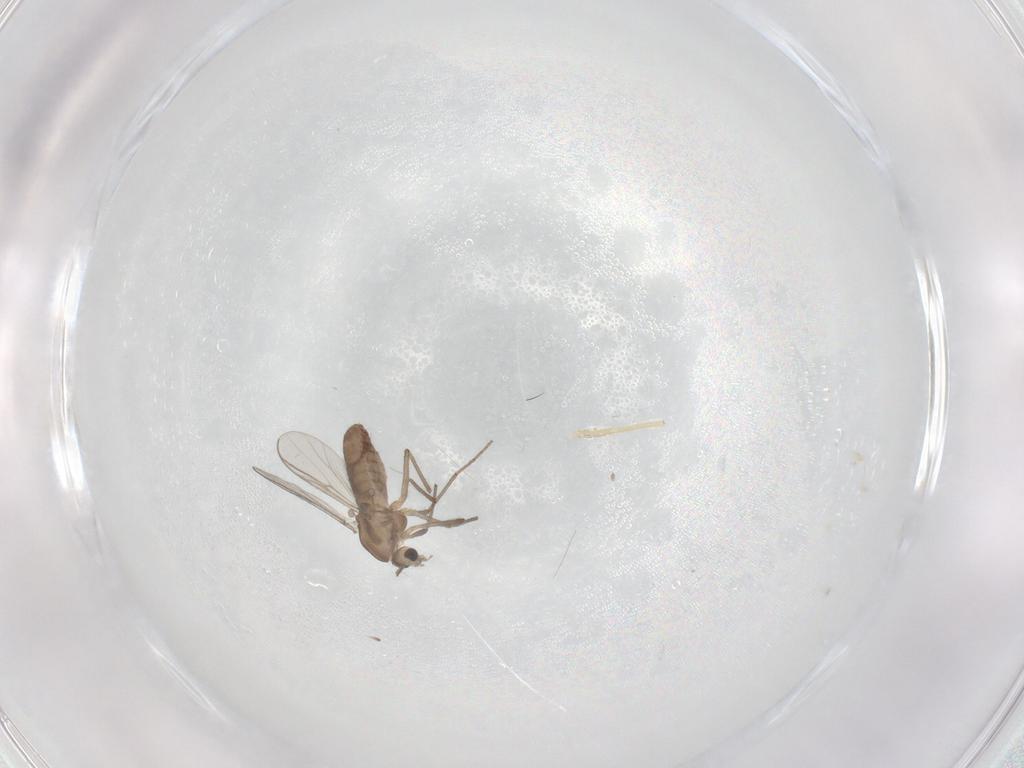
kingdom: Animalia
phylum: Arthropoda
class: Insecta
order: Diptera
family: Chironomidae
